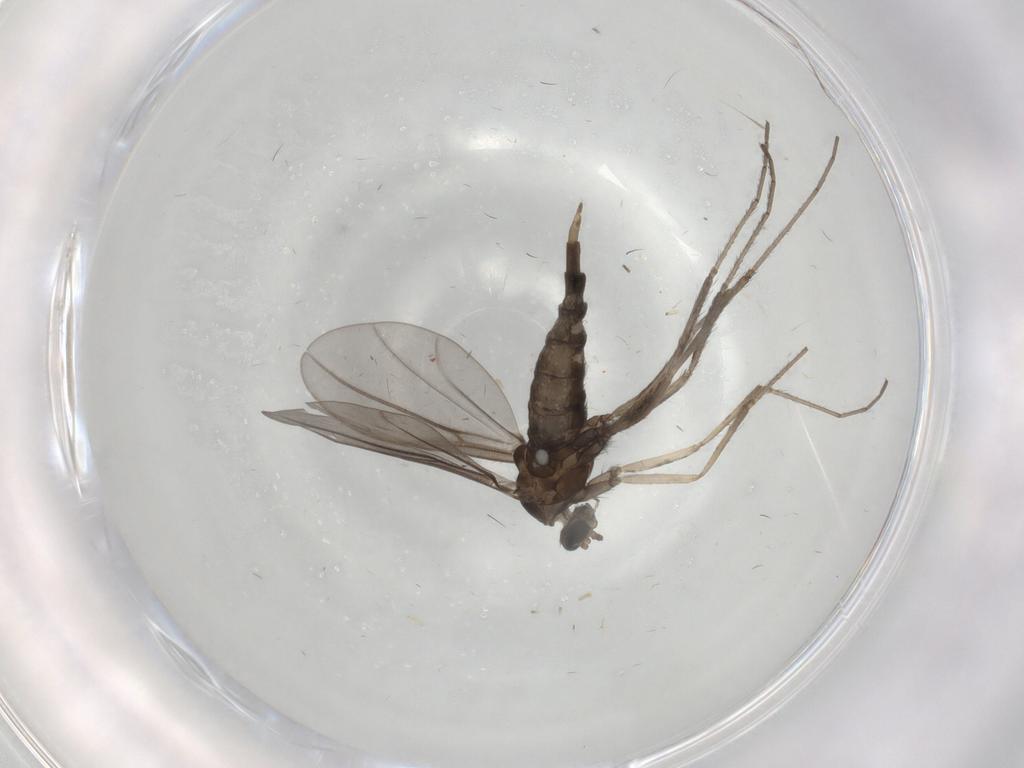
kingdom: Animalia
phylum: Arthropoda
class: Insecta
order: Diptera
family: Cecidomyiidae
